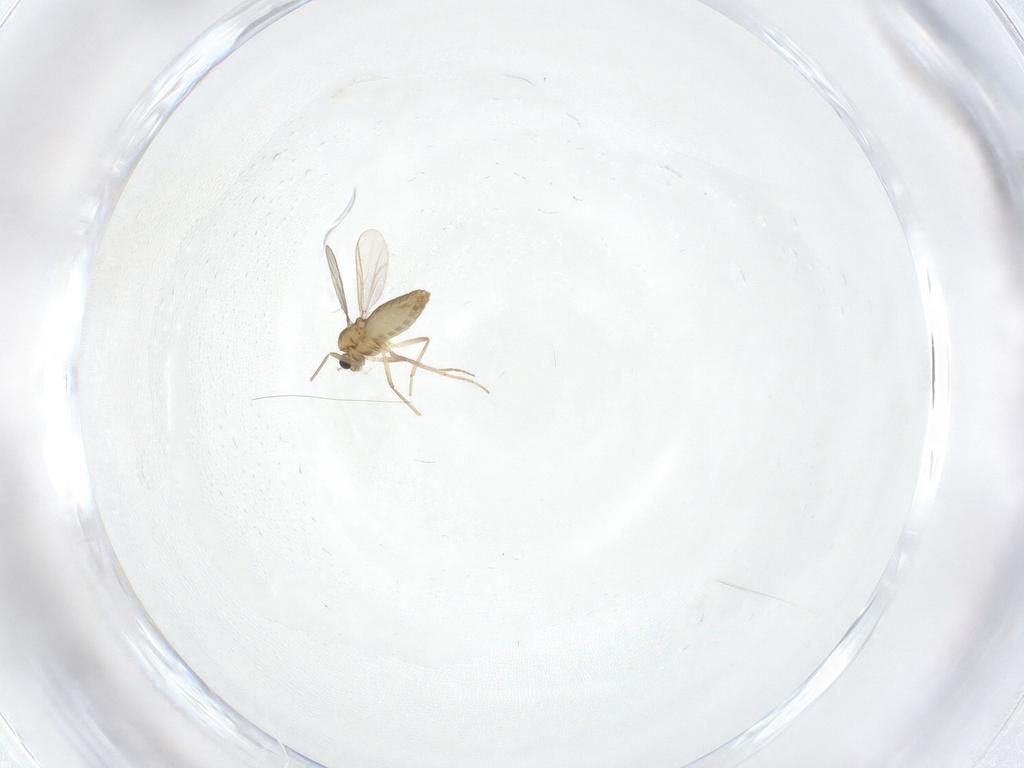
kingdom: Animalia
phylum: Arthropoda
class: Insecta
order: Diptera
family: Chironomidae
